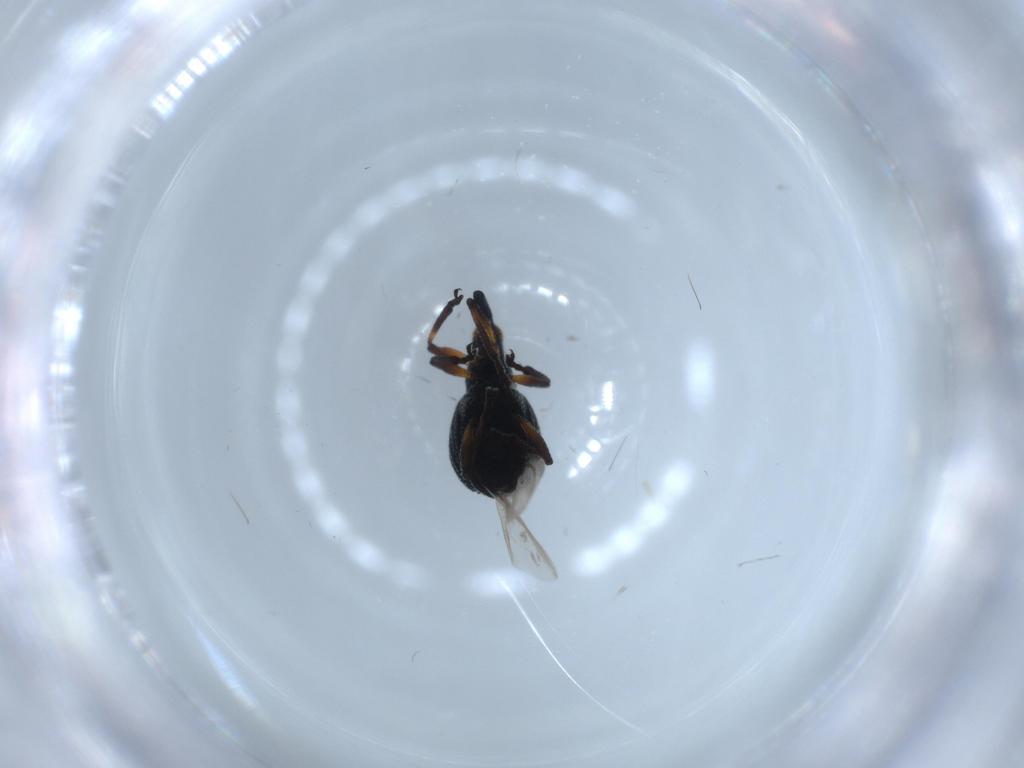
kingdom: Animalia
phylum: Arthropoda
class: Insecta
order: Coleoptera
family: Brentidae
